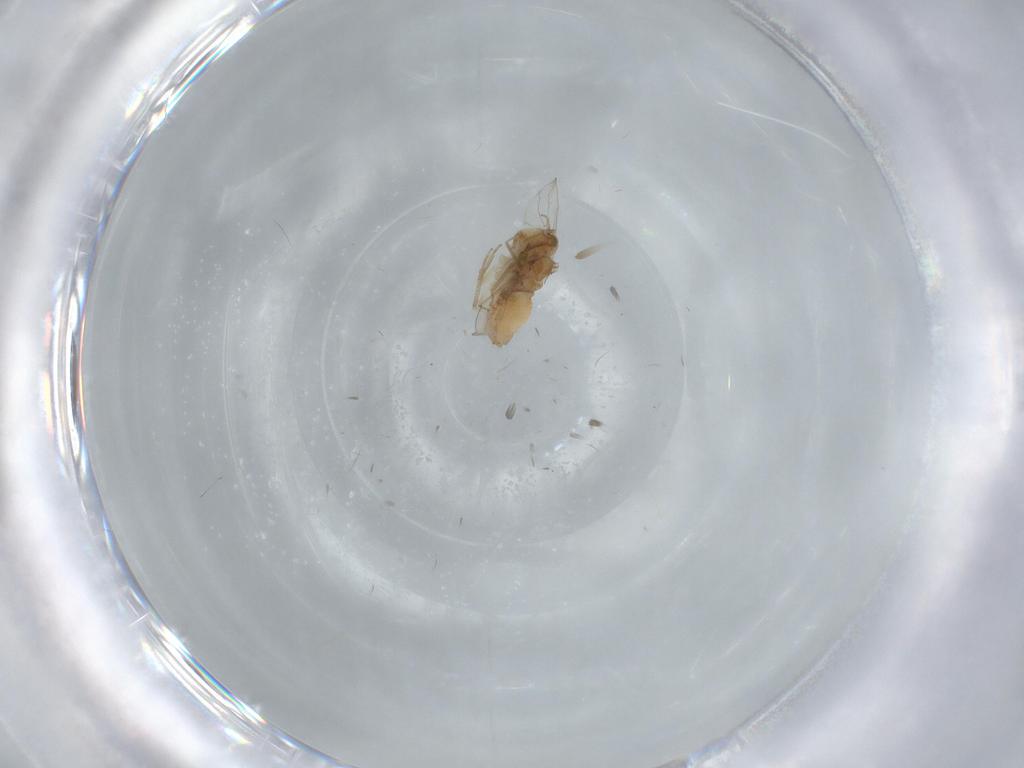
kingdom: Animalia
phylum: Arthropoda
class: Insecta
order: Psocodea
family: Ectopsocidae
